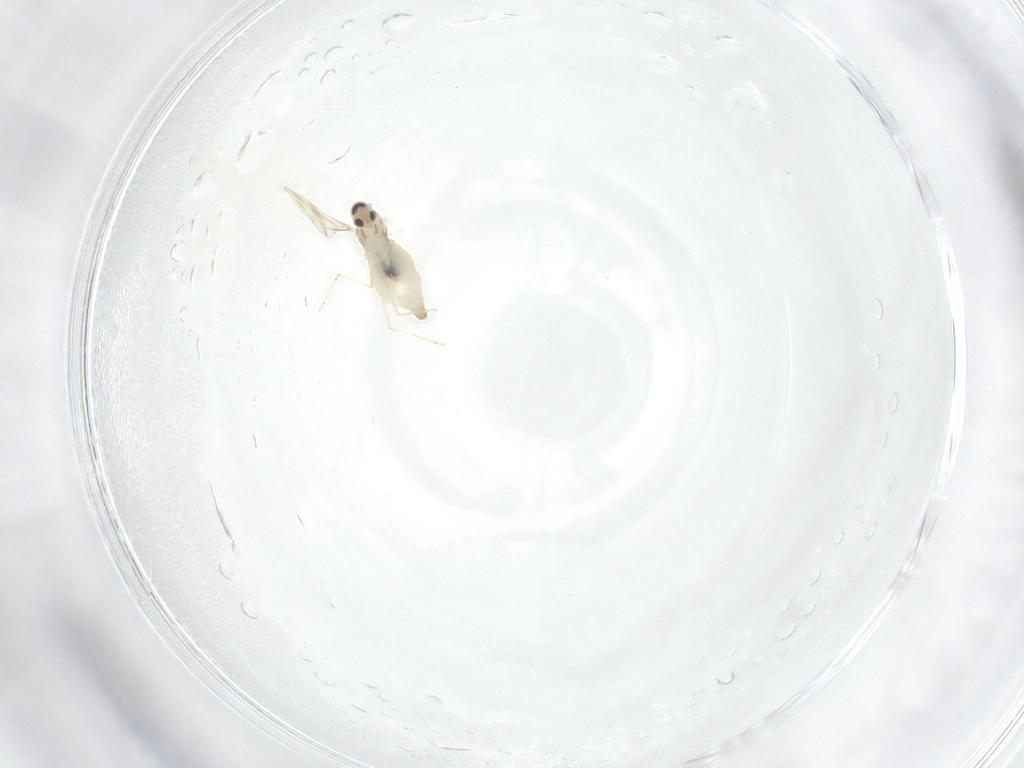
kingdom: Animalia
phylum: Arthropoda
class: Insecta
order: Diptera
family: Cecidomyiidae
